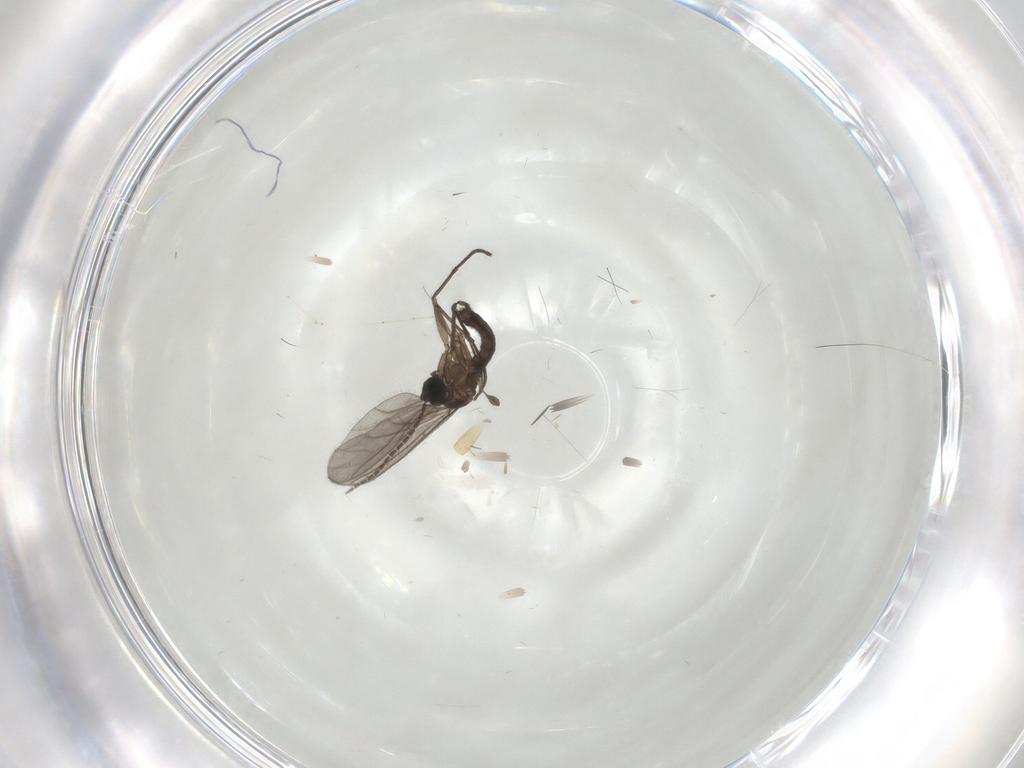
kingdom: Animalia
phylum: Arthropoda
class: Insecta
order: Diptera
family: Sciaridae
